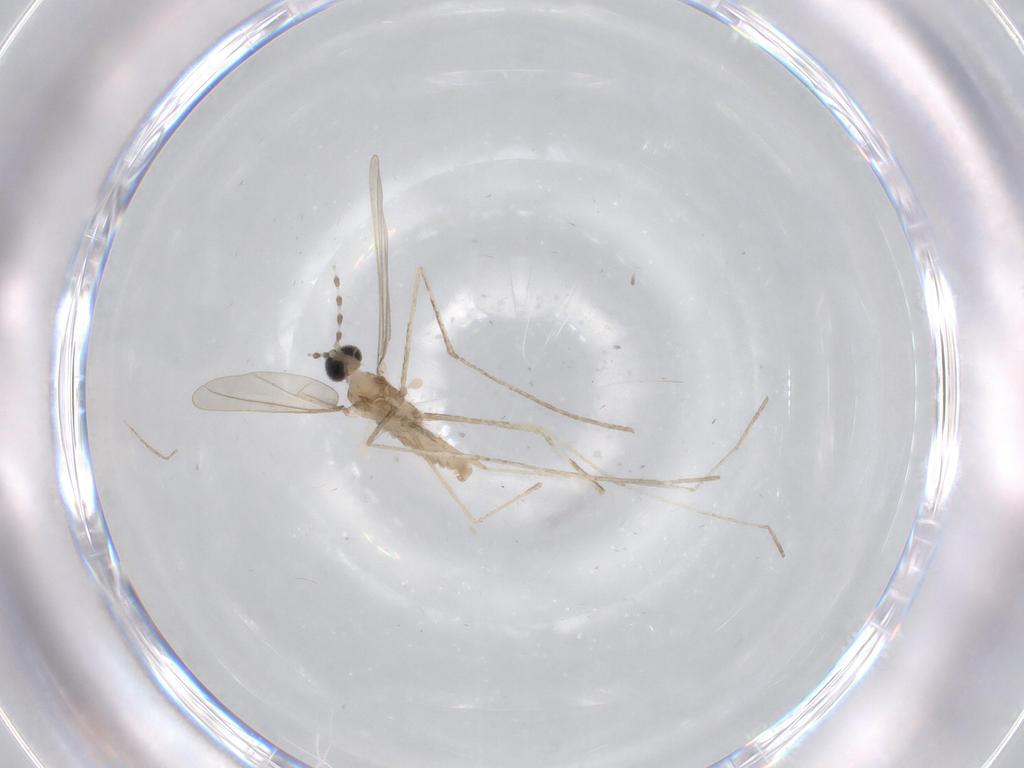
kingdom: Animalia
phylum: Arthropoda
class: Insecta
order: Diptera
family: Cecidomyiidae
